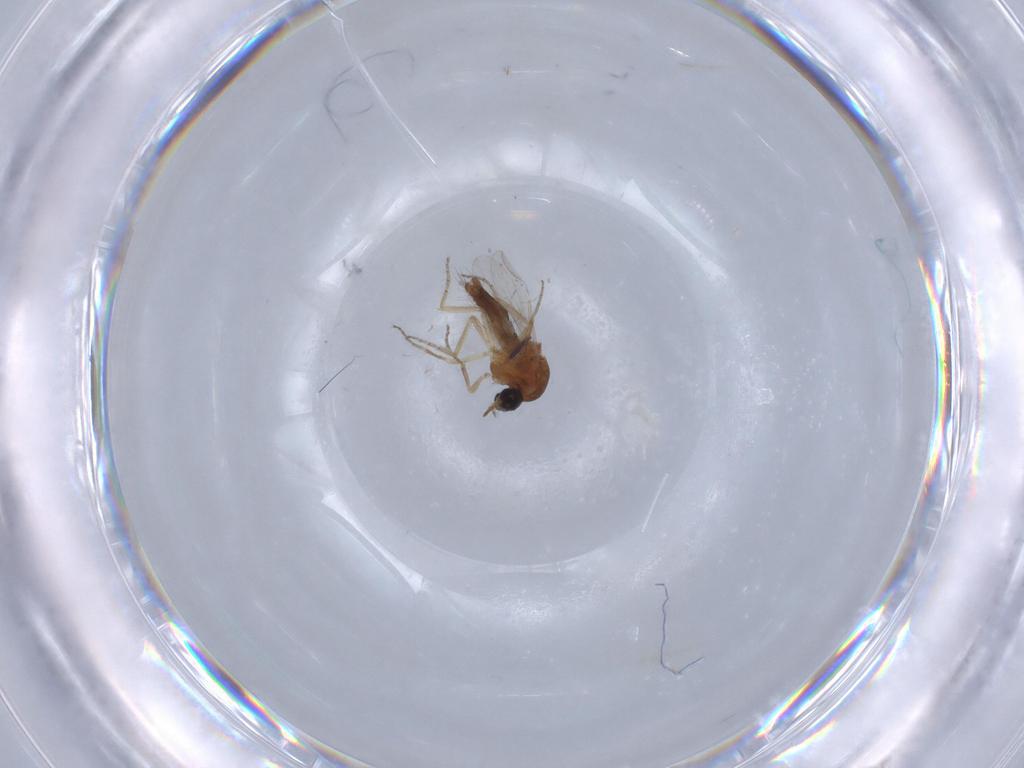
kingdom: Animalia
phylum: Arthropoda
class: Insecta
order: Diptera
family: Ceratopogonidae
